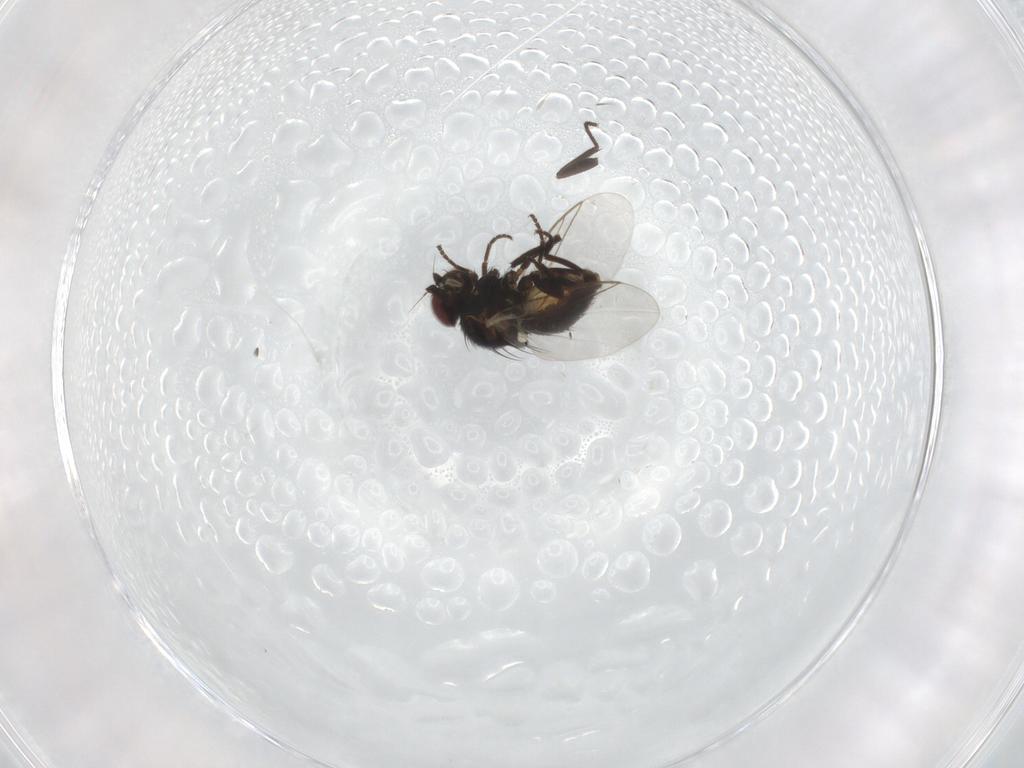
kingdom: Animalia
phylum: Arthropoda
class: Insecta
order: Diptera
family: Agromyzidae
